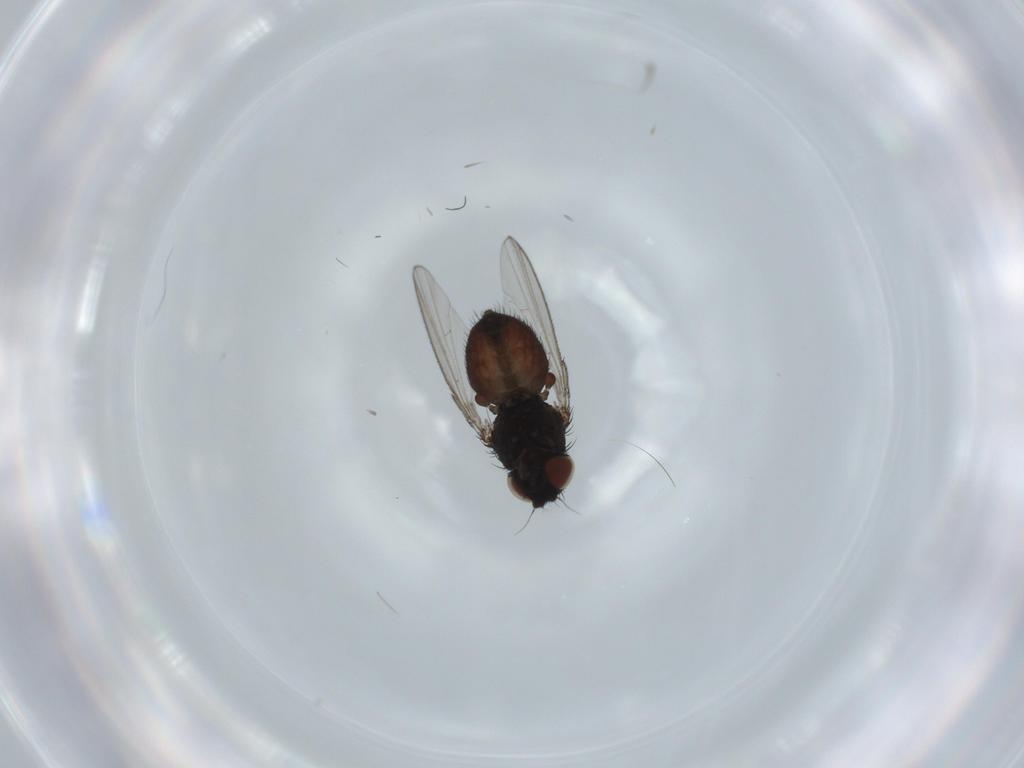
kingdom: Animalia
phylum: Arthropoda
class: Insecta
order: Diptera
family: Milichiidae
